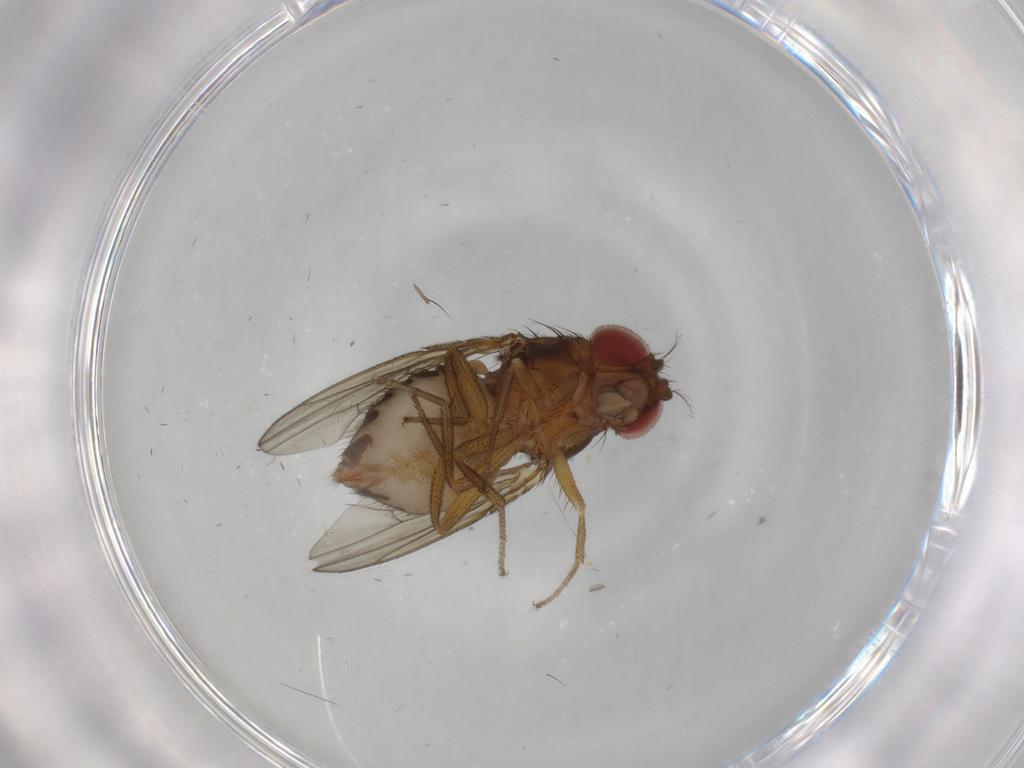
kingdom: Animalia
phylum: Arthropoda
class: Insecta
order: Diptera
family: Drosophilidae
